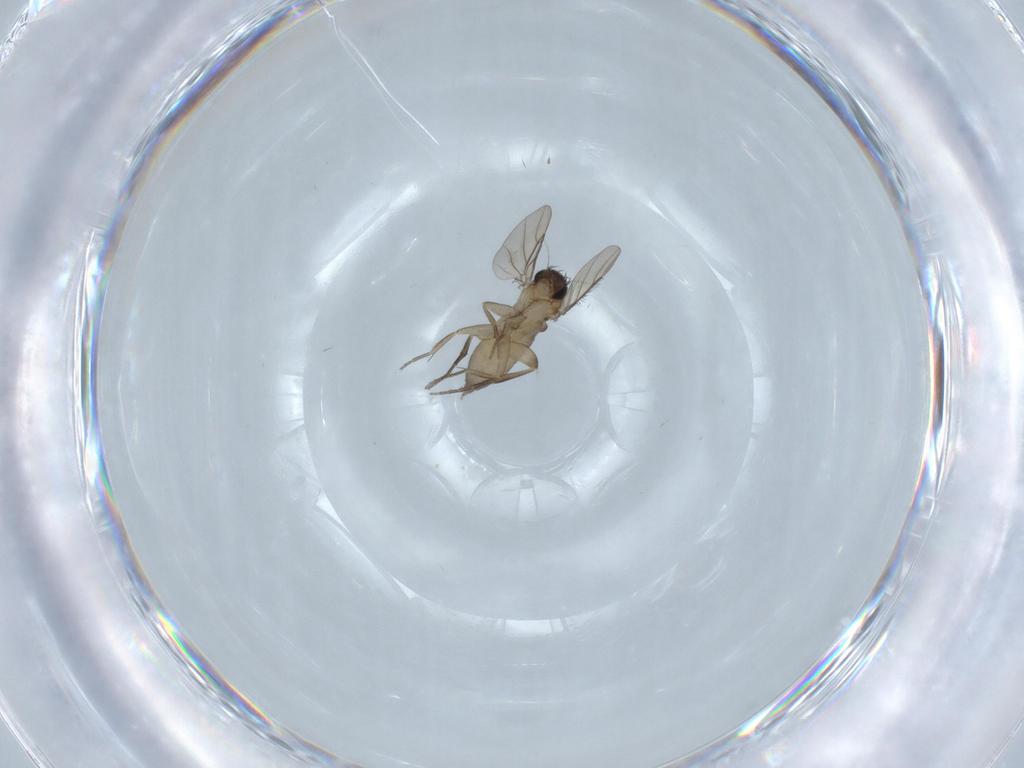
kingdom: Animalia
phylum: Arthropoda
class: Insecta
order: Diptera
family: Phoridae
